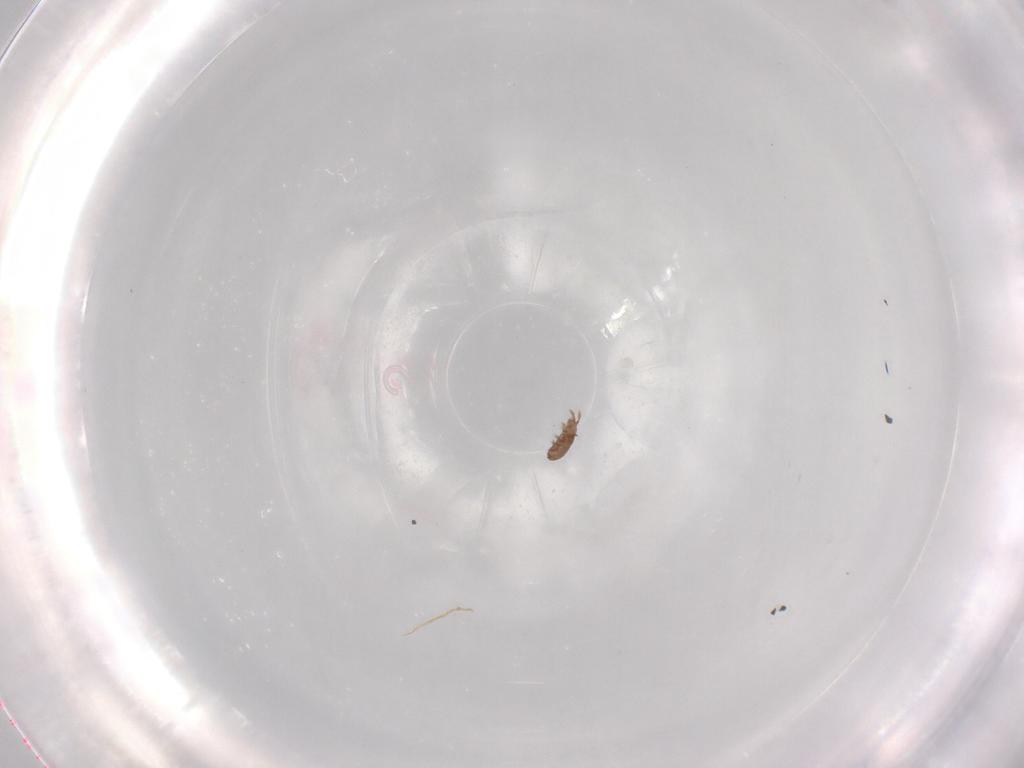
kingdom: Animalia
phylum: Arthropoda
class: Arachnida
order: Sarcoptiformes
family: Eremaeidae
